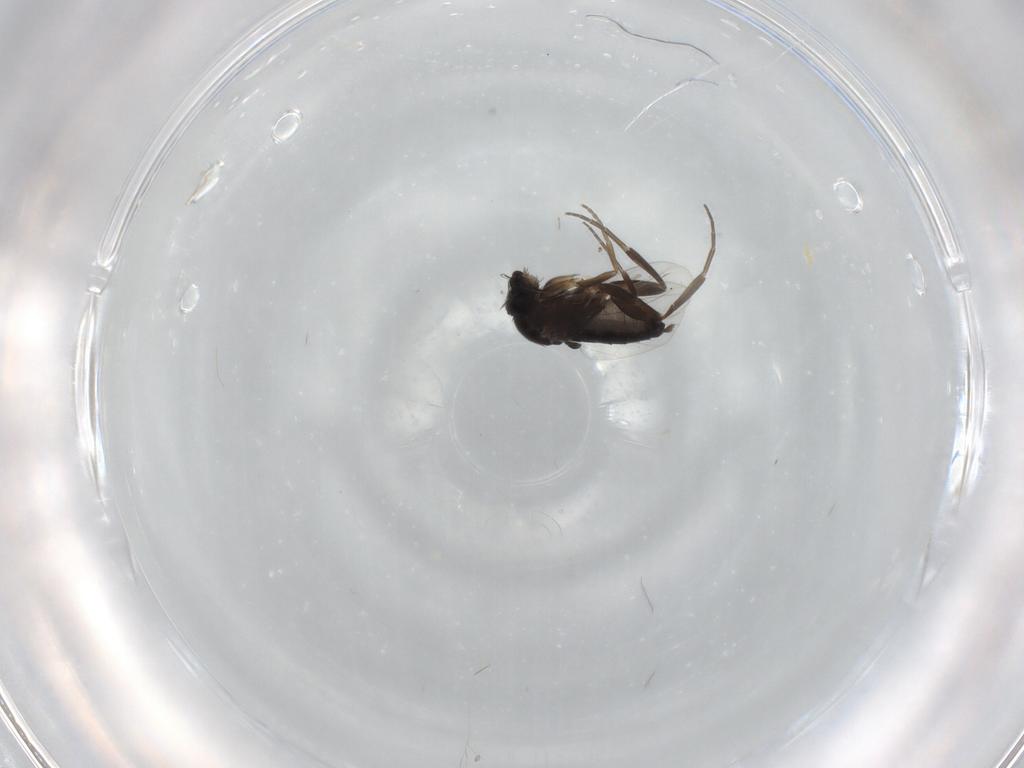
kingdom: Animalia
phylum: Arthropoda
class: Insecta
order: Diptera
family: Phoridae
